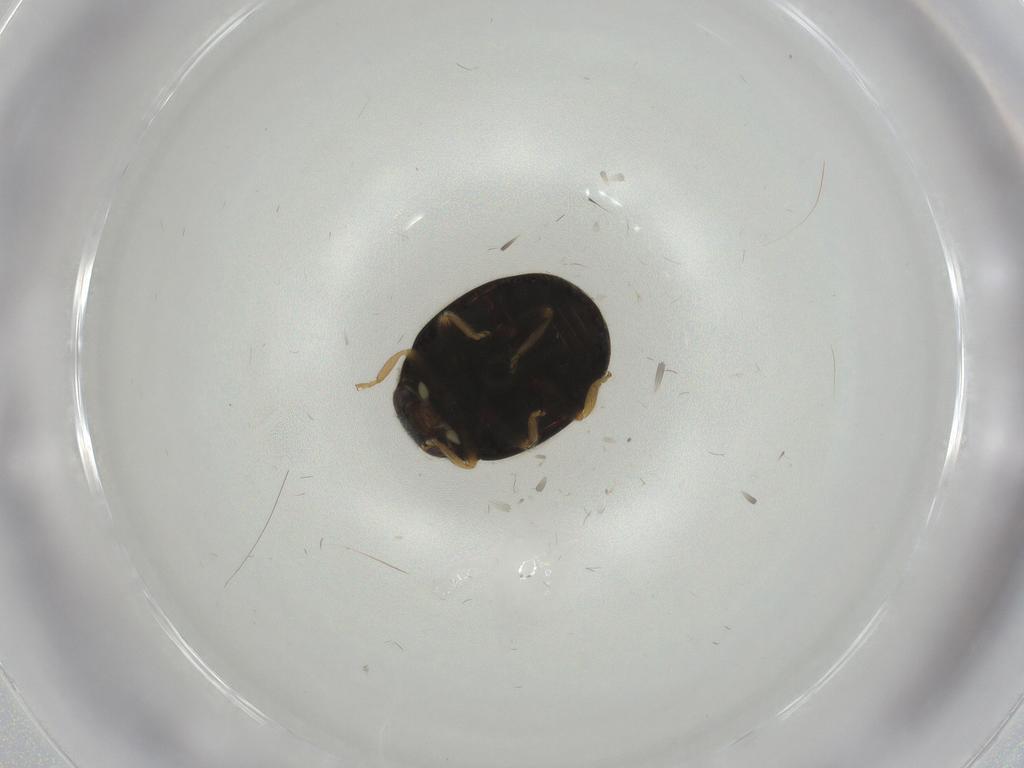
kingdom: Animalia
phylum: Arthropoda
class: Insecta
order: Coleoptera
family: Coccinellidae
